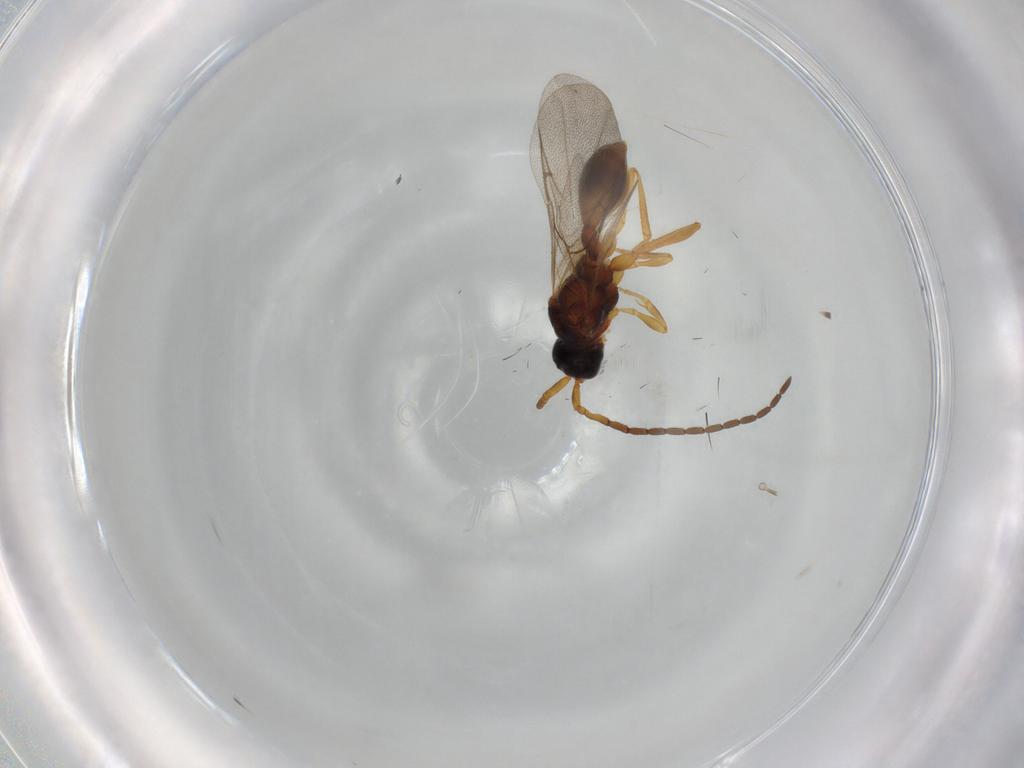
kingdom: Animalia
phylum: Arthropoda
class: Insecta
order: Hymenoptera
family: Diapriidae
